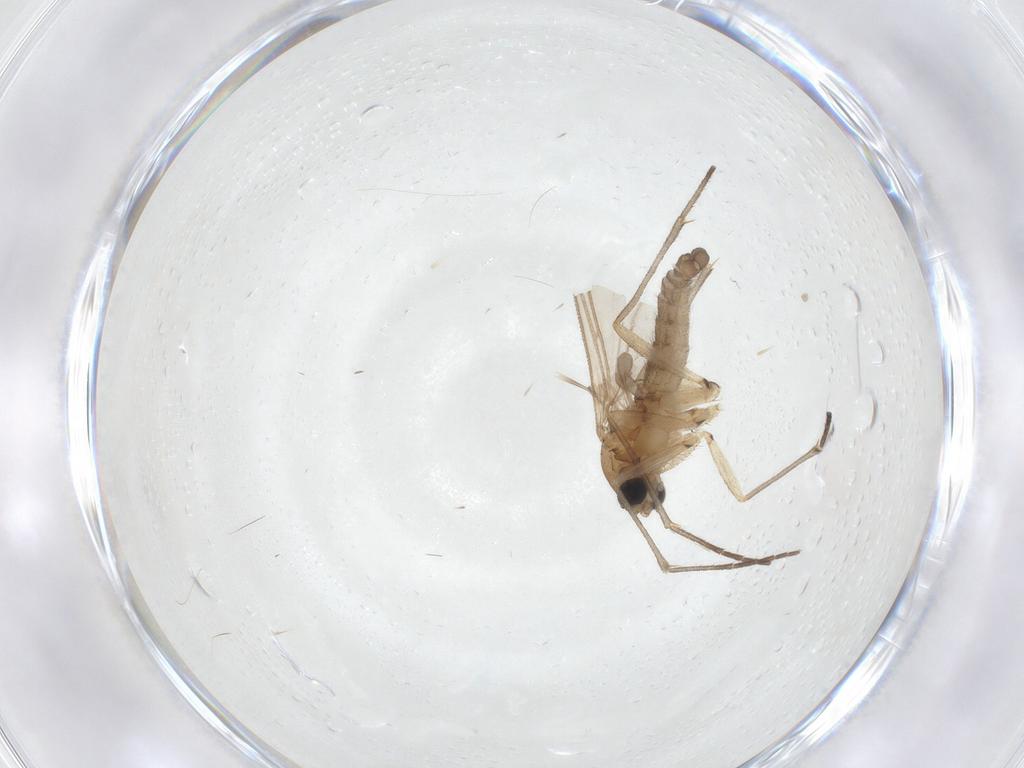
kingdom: Animalia
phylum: Arthropoda
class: Insecta
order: Diptera
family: Sciaridae
